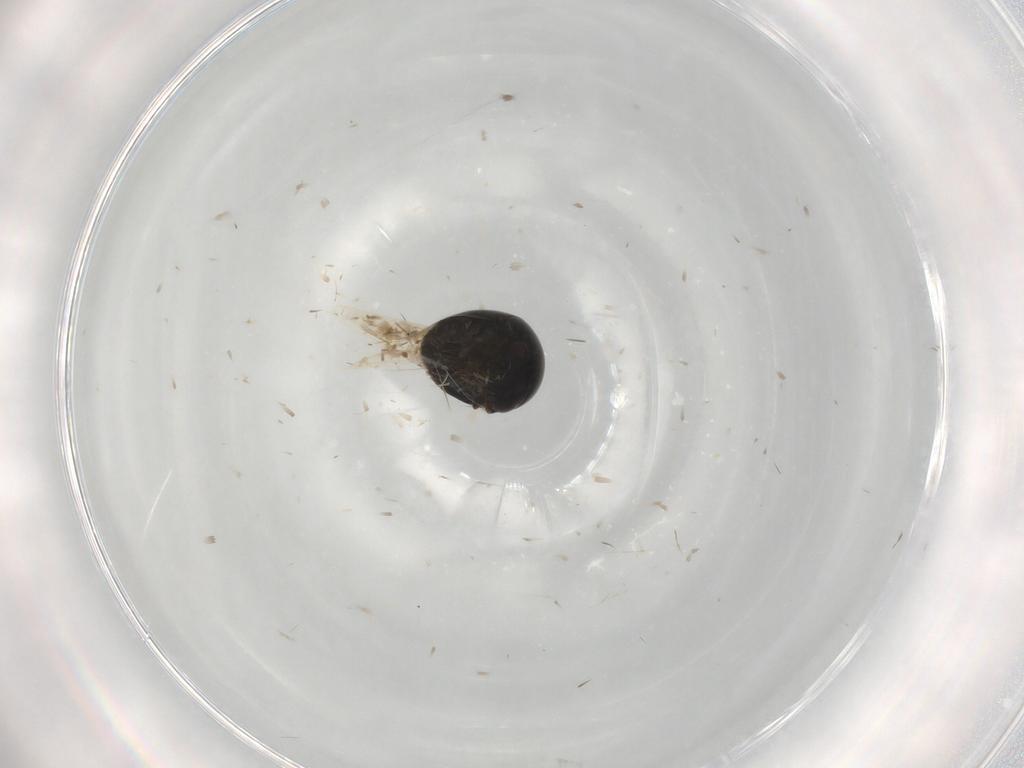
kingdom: Animalia
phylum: Arthropoda
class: Insecta
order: Coleoptera
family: Cybocephalidae
